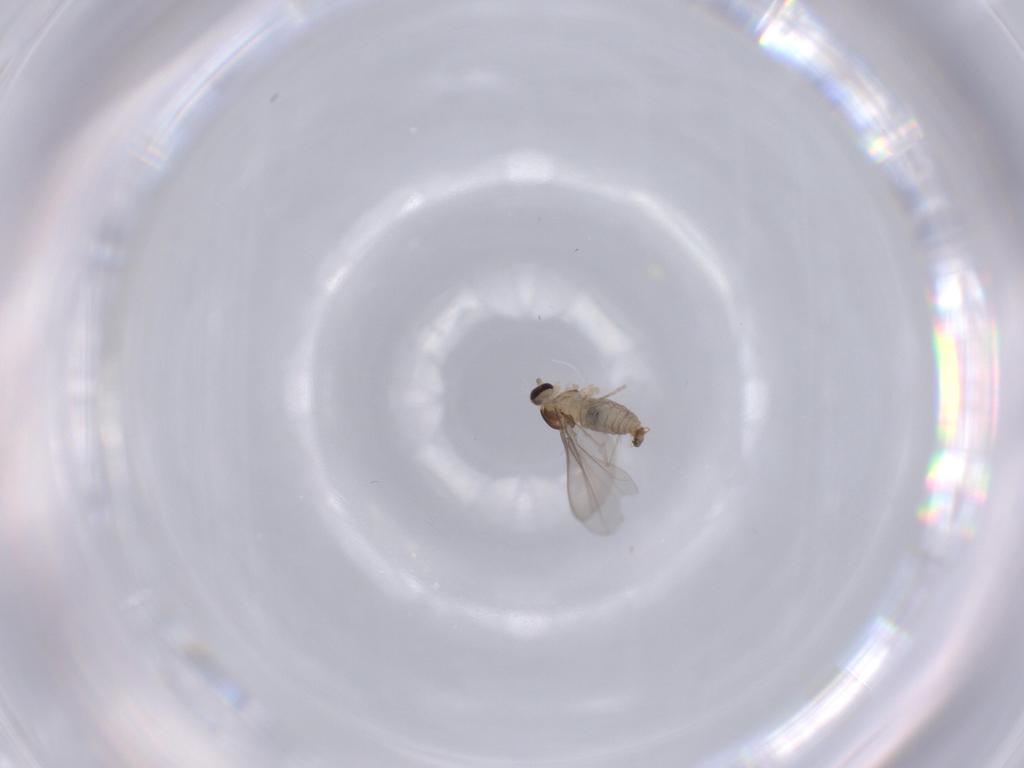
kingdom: Animalia
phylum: Arthropoda
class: Insecta
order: Diptera
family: Cecidomyiidae
